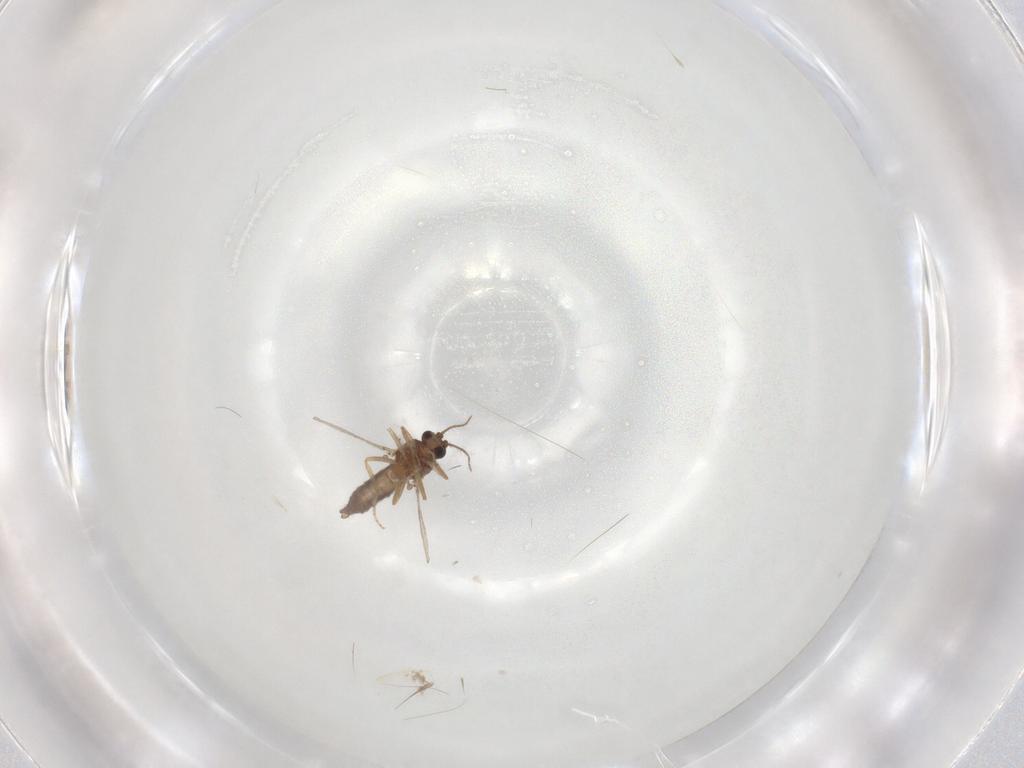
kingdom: Animalia
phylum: Arthropoda
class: Insecta
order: Diptera
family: Ceratopogonidae
